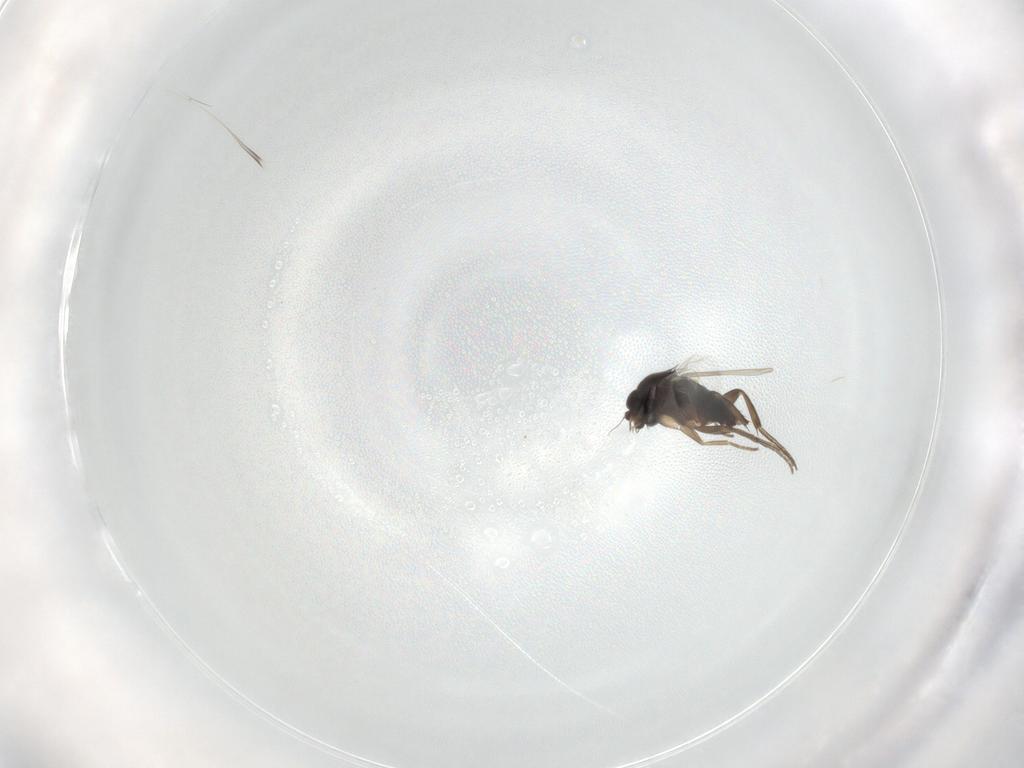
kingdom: Animalia
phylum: Arthropoda
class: Insecta
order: Diptera
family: Phoridae
